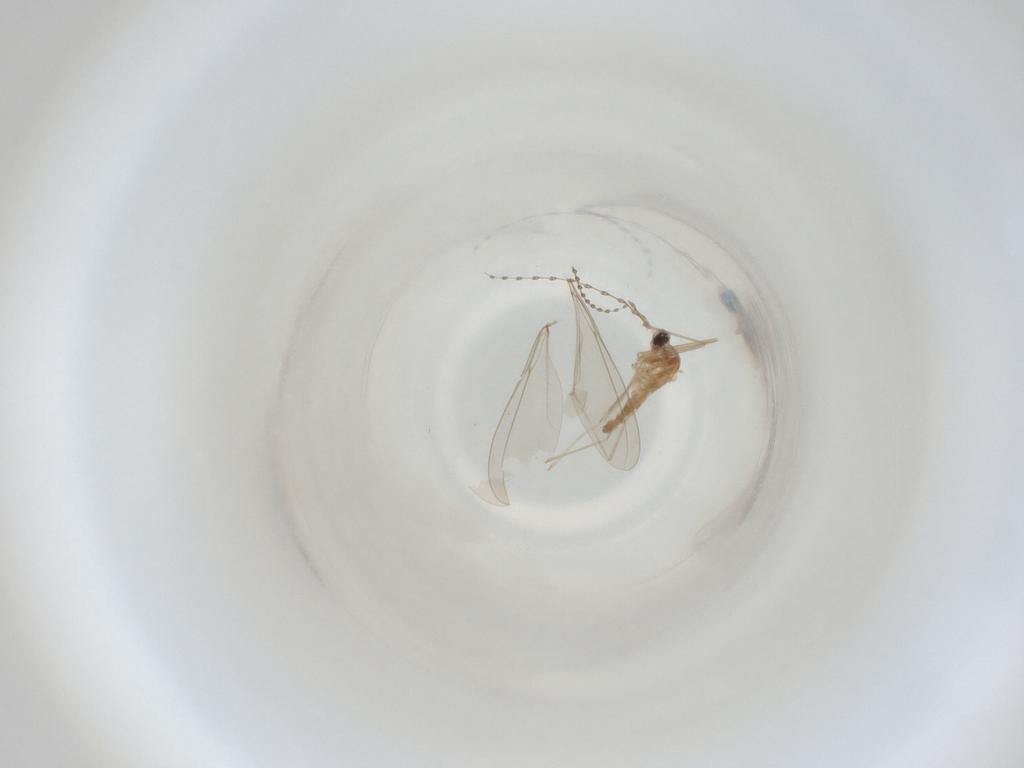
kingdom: Animalia
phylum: Arthropoda
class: Insecta
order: Diptera
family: Cecidomyiidae
